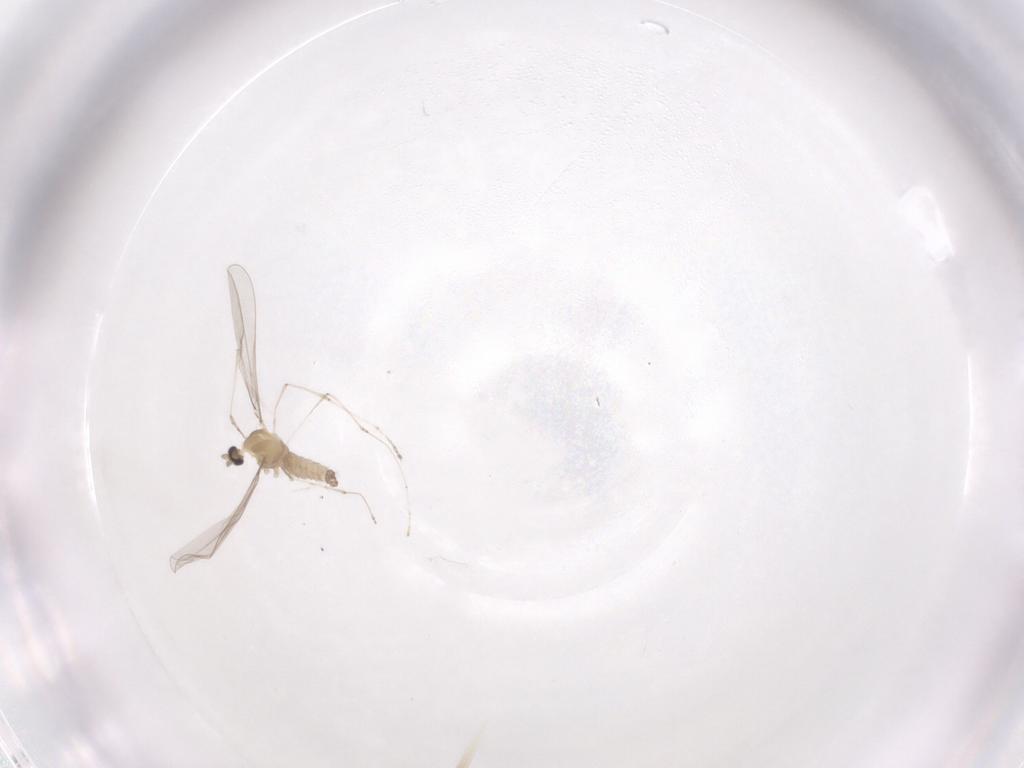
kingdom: Animalia
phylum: Arthropoda
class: Insecta
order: Diptera
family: Cecidomyiidae
